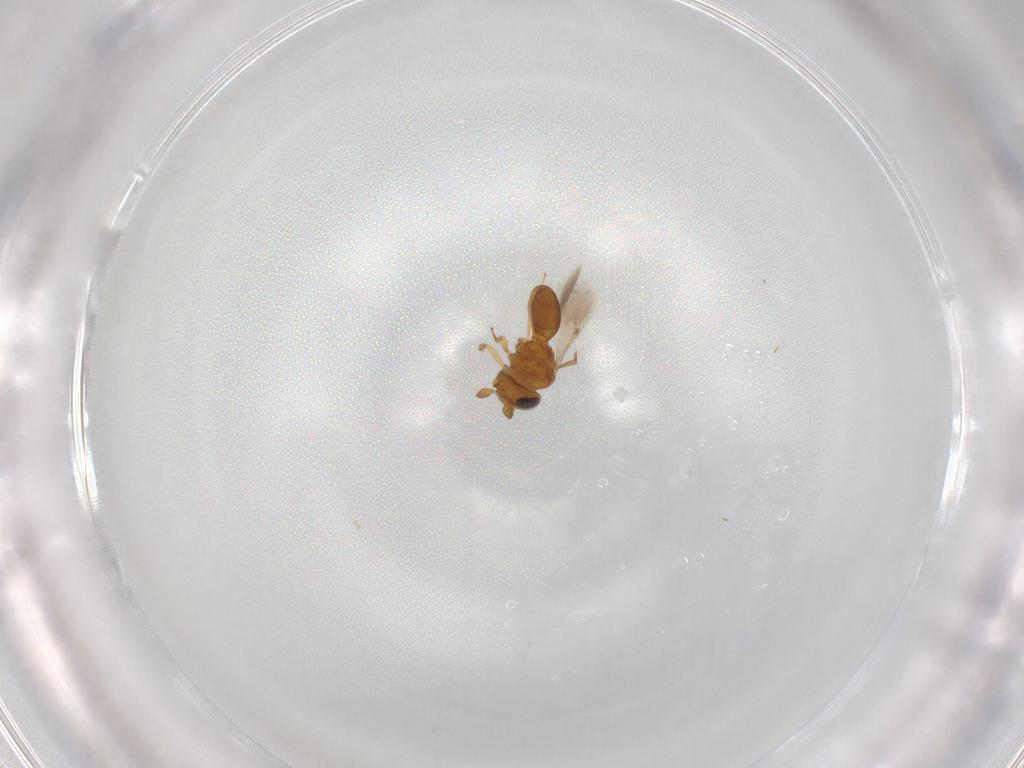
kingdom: Animalia
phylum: Arthropoda
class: Insecta
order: Hymenoptera
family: Scelionidae
